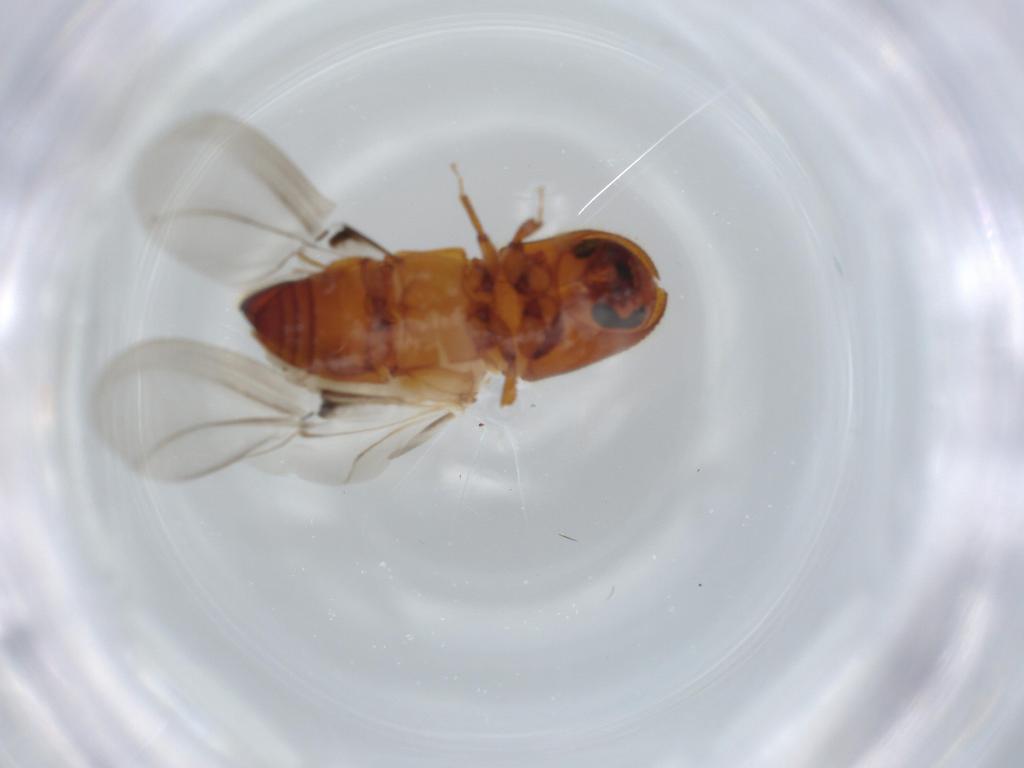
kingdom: Animalia
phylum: Arthropoda
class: Insecta
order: Coleoptera
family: Curculionidae
